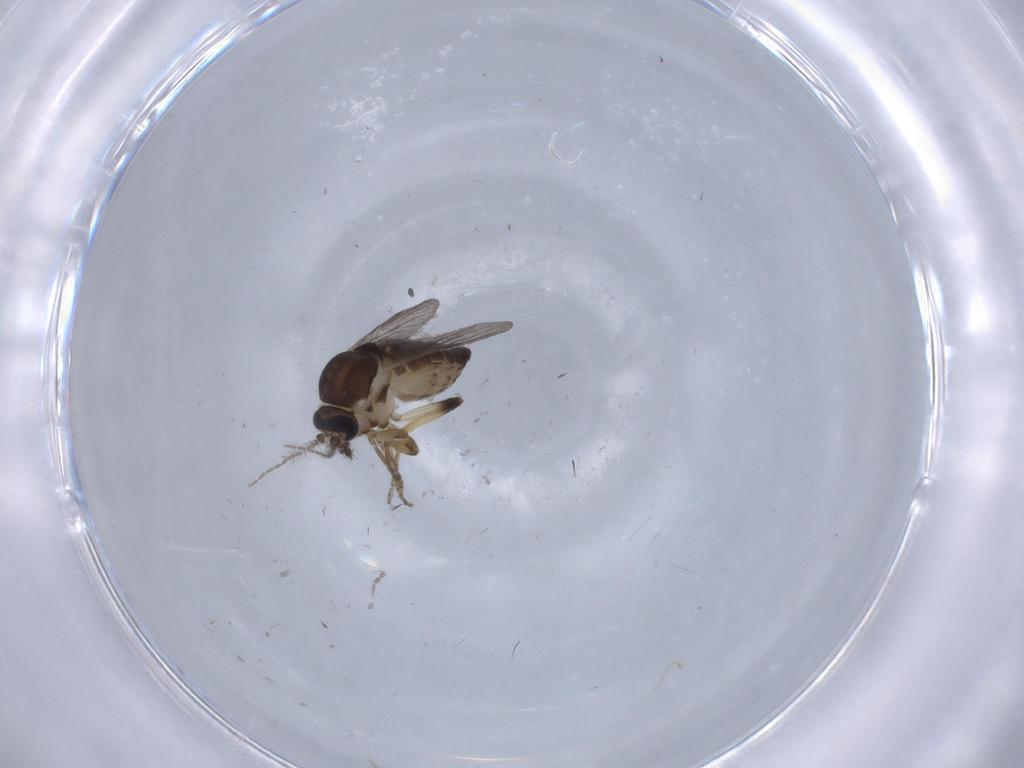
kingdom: Animalia
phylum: Arthropoda
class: Insecta
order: Diptera
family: Ceratopogonidae
